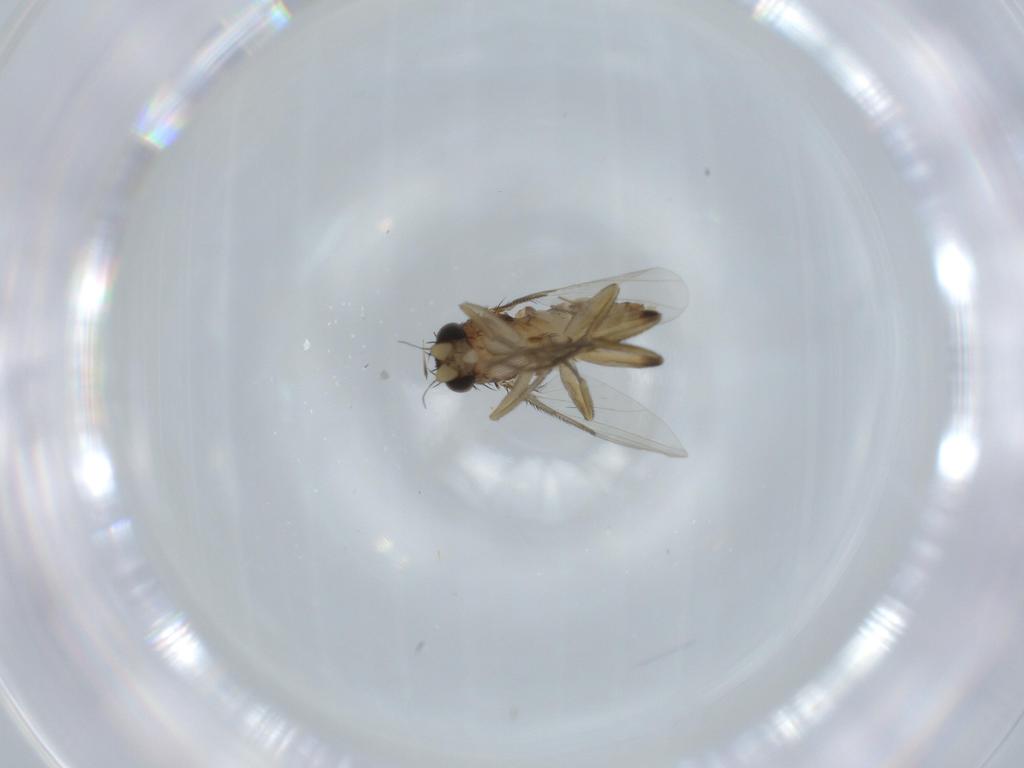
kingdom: Animalia
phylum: Arthropoda
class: Insecta
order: Diptera
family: Phoridae
